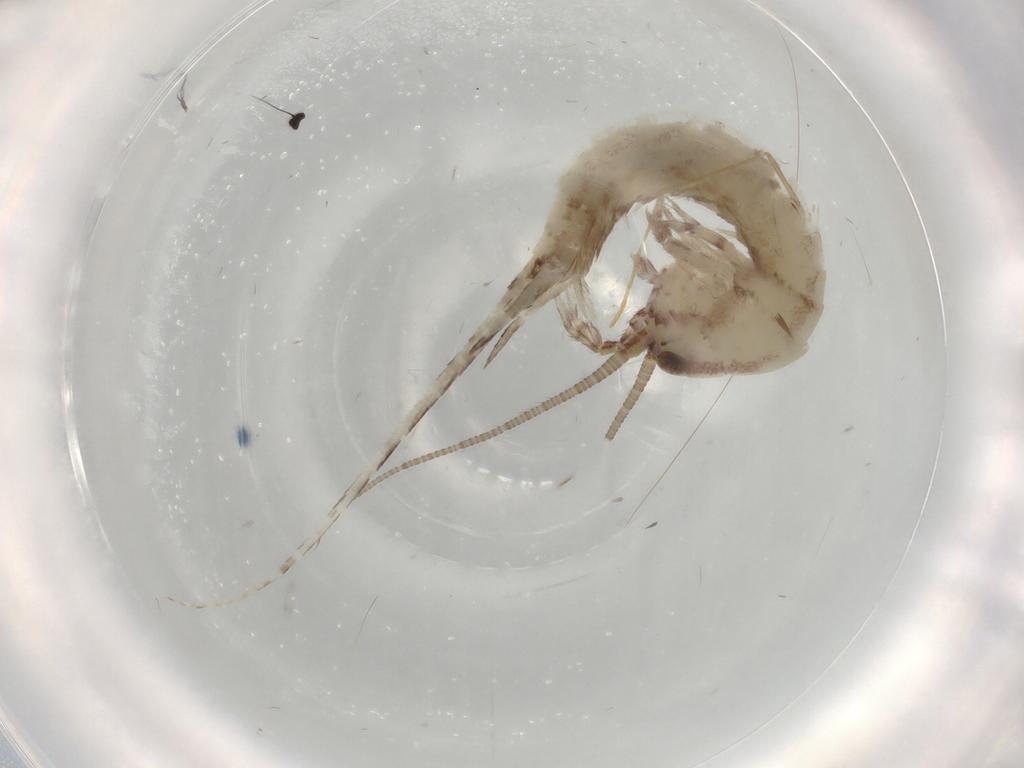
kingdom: Animalia
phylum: Arthropoda
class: Insecta
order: Archaeognatha
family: Machilidae
